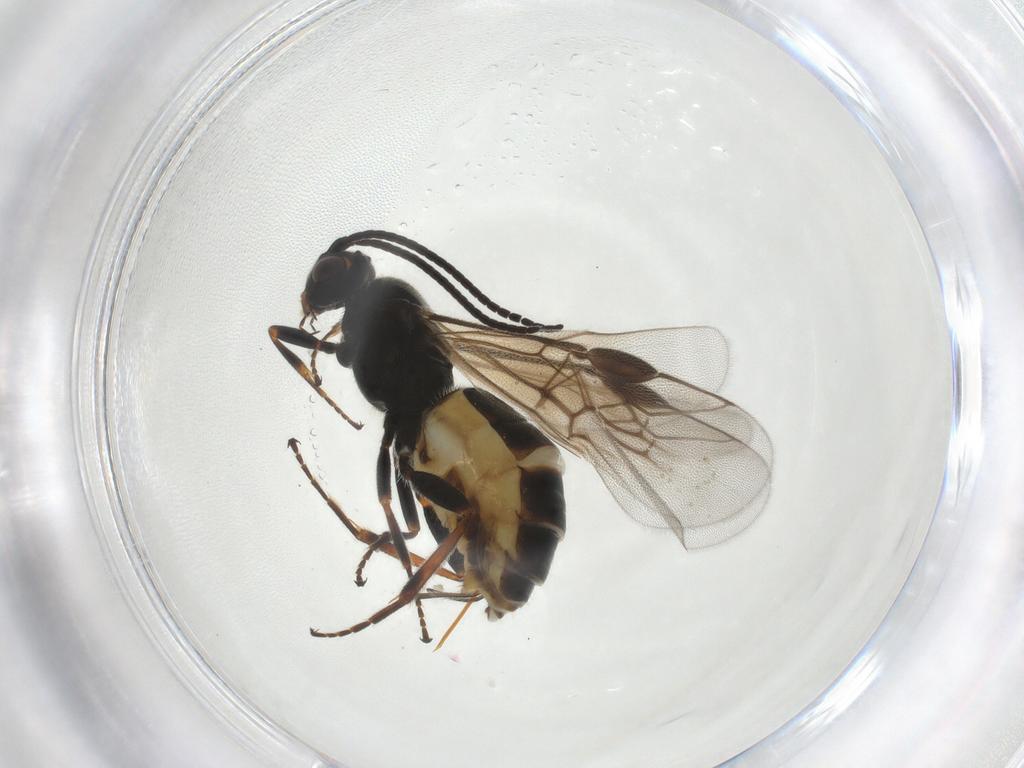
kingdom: Animalia
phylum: Arthropoda
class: Insecta
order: Hymenoptera
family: Braconidae
